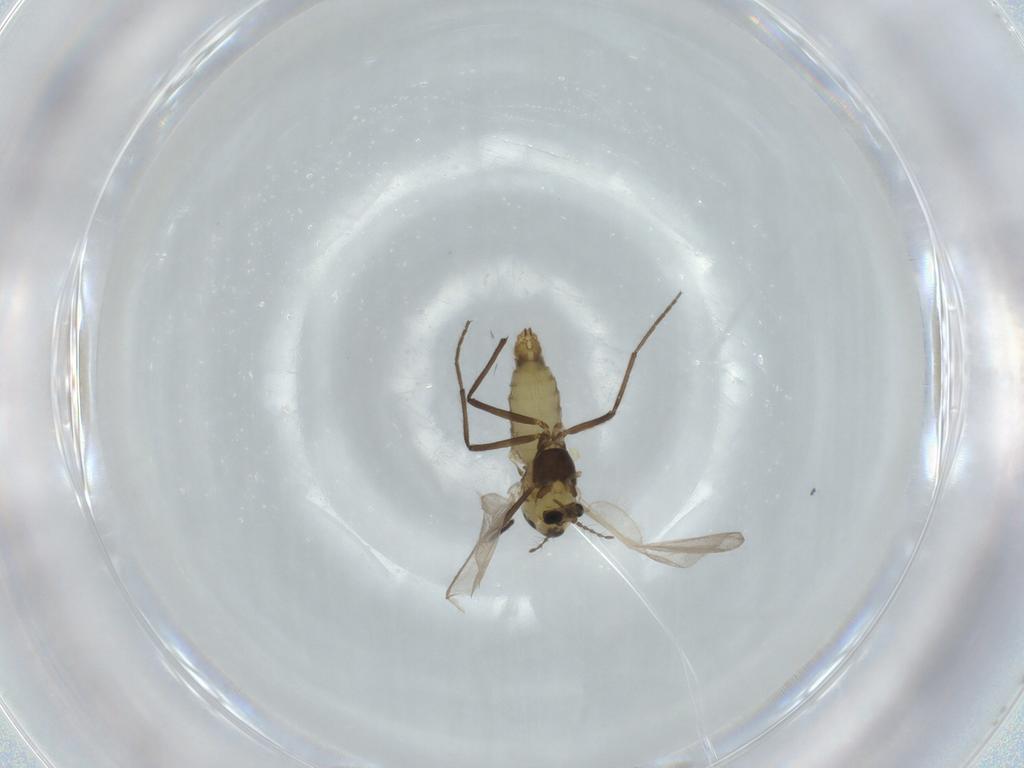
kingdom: Animalia
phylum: Arthropoda
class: Insecta
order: Diptera
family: Chironomidae
